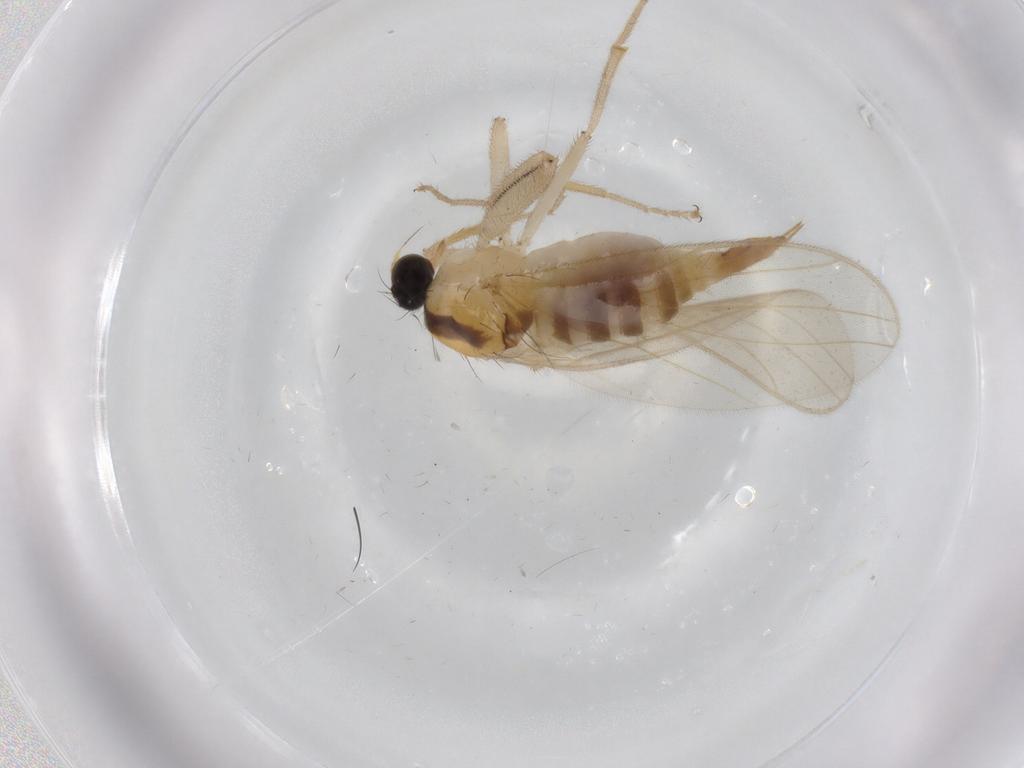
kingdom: Animalia
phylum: Arthropoda
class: Insecta
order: Diptera
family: Hybotidae
